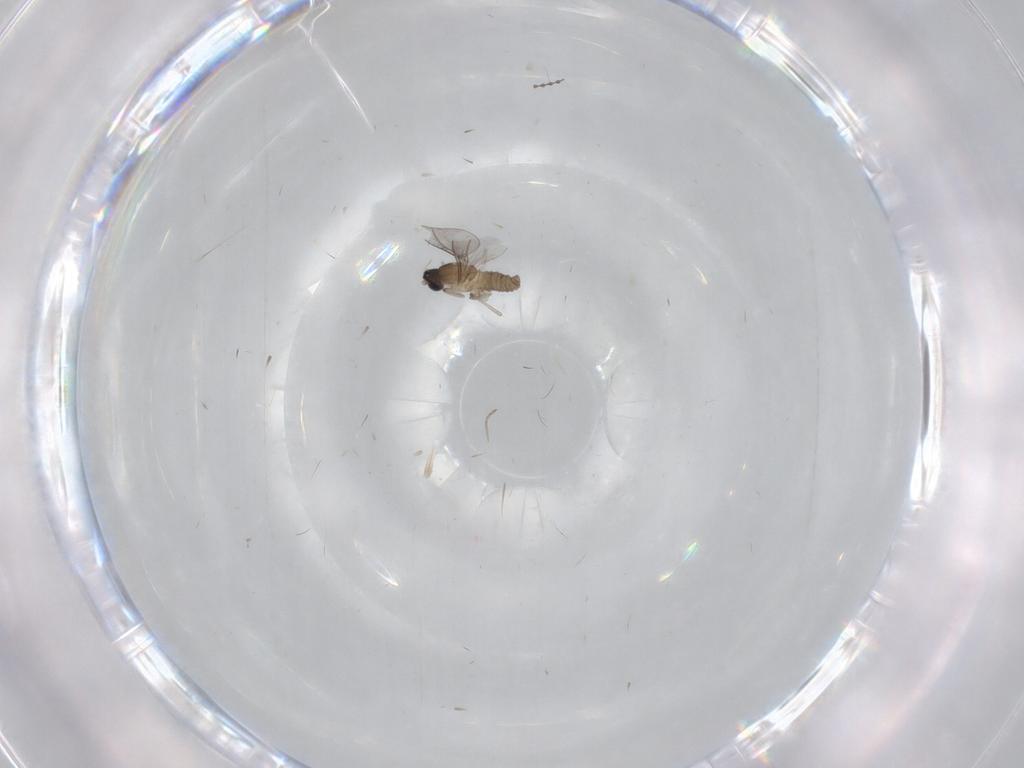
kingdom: Animalia
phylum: Arthropoda
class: Insecta
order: Diptera
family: Cecidomyiidae
